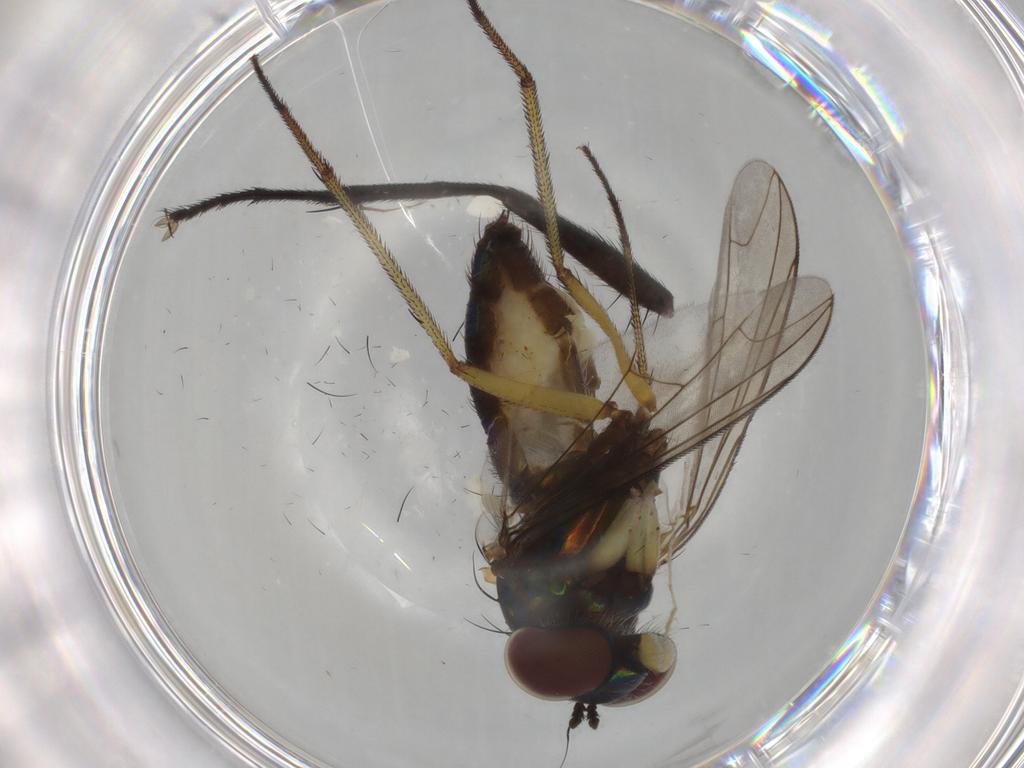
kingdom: Animalia
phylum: Arthropoda
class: Insecta
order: Diptera
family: Dolichopodidae
